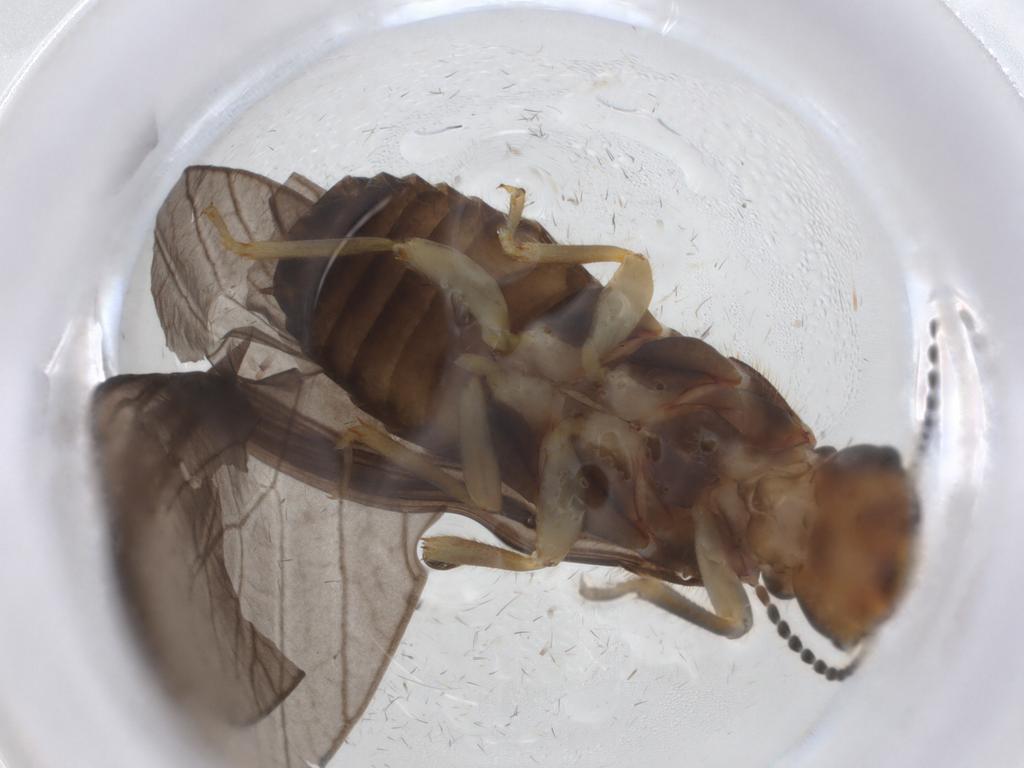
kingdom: Animalia
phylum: Arthropoda
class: Insecta
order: Blattodea
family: Stolotermitidae
